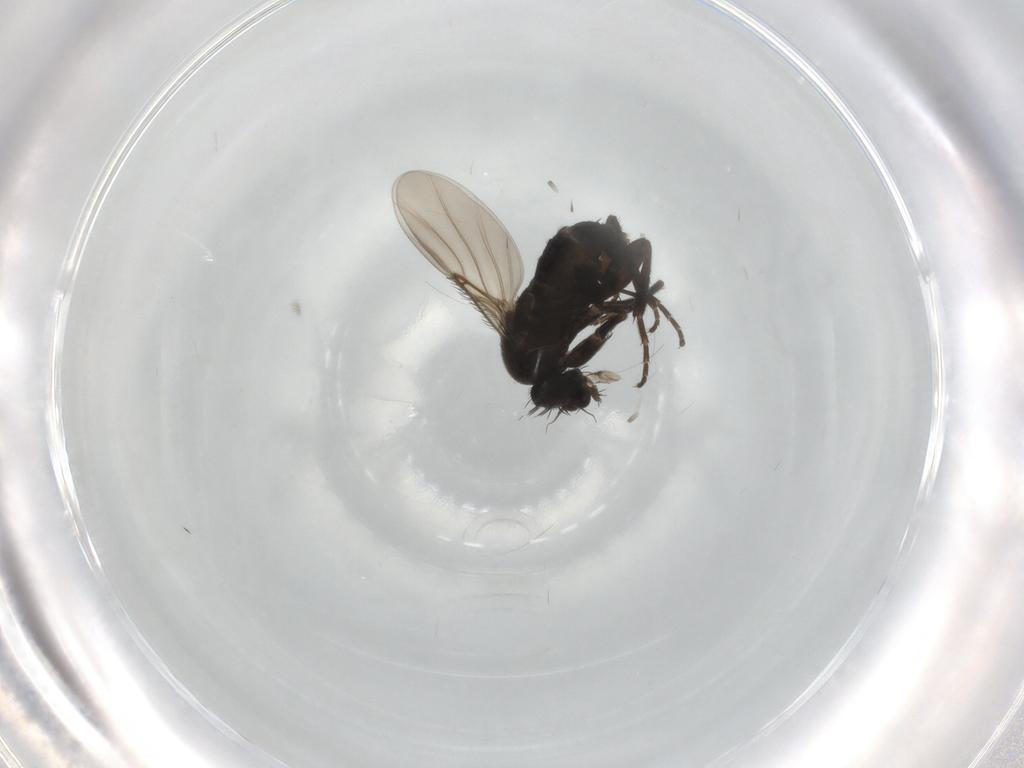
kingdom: Animalia
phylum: Arthropoda
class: Insecta
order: Diptera
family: Phoridae
